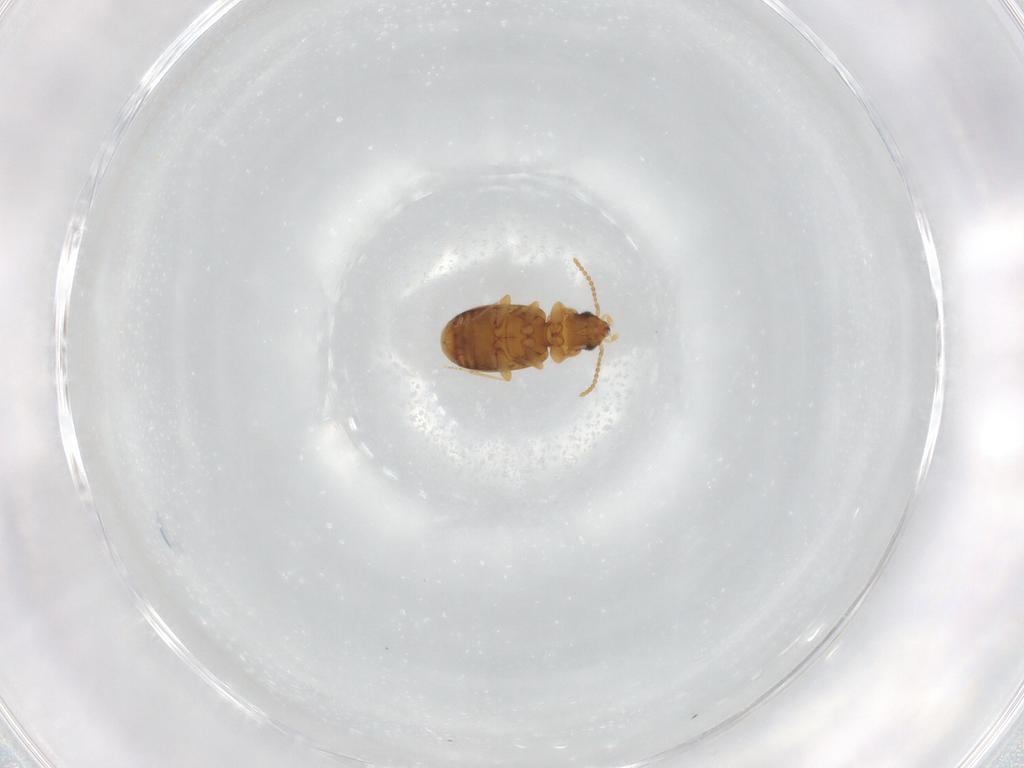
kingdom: Animalia
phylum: Arthropoda
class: Insecta
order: Coleoptera
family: Carabidae
